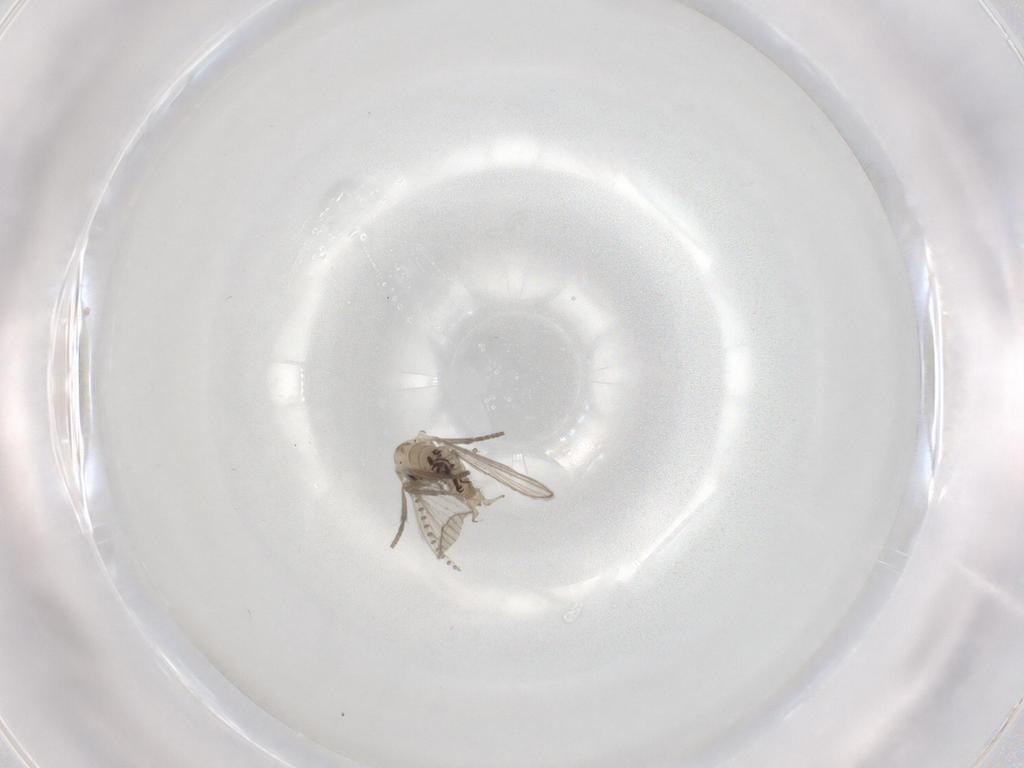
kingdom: Animalia
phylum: Arthropoda
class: Insecta
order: Diptera
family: Psychodidae
